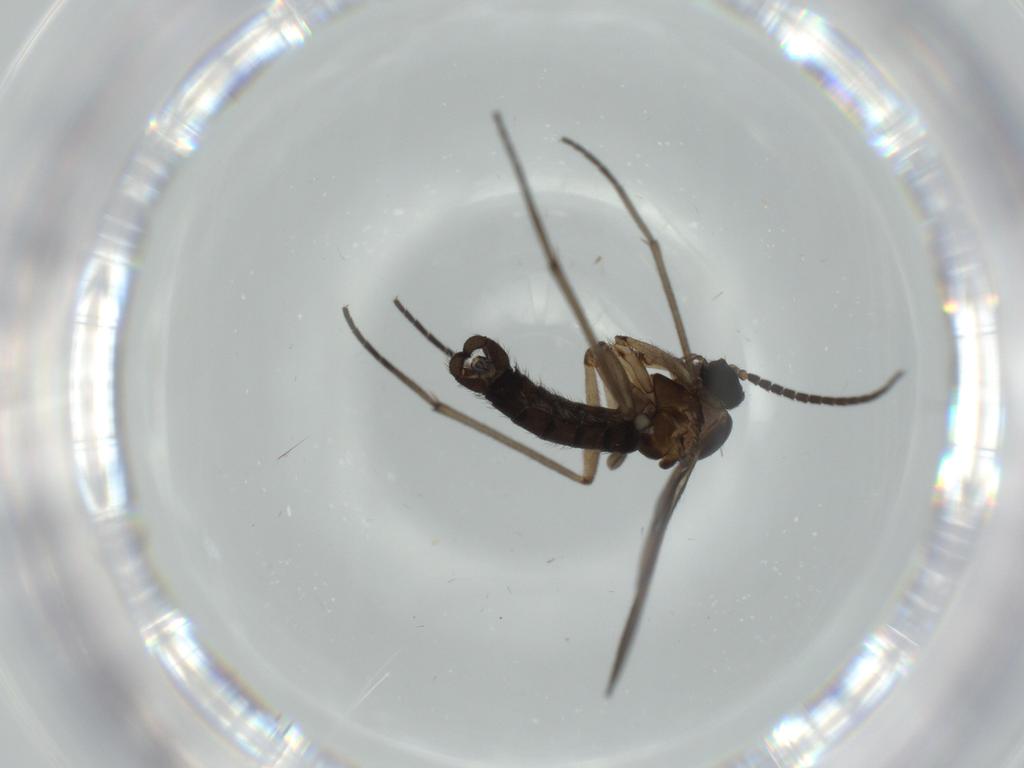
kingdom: Animalia
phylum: Arthropoda
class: Insecta
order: Diptera
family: Sciaridae
